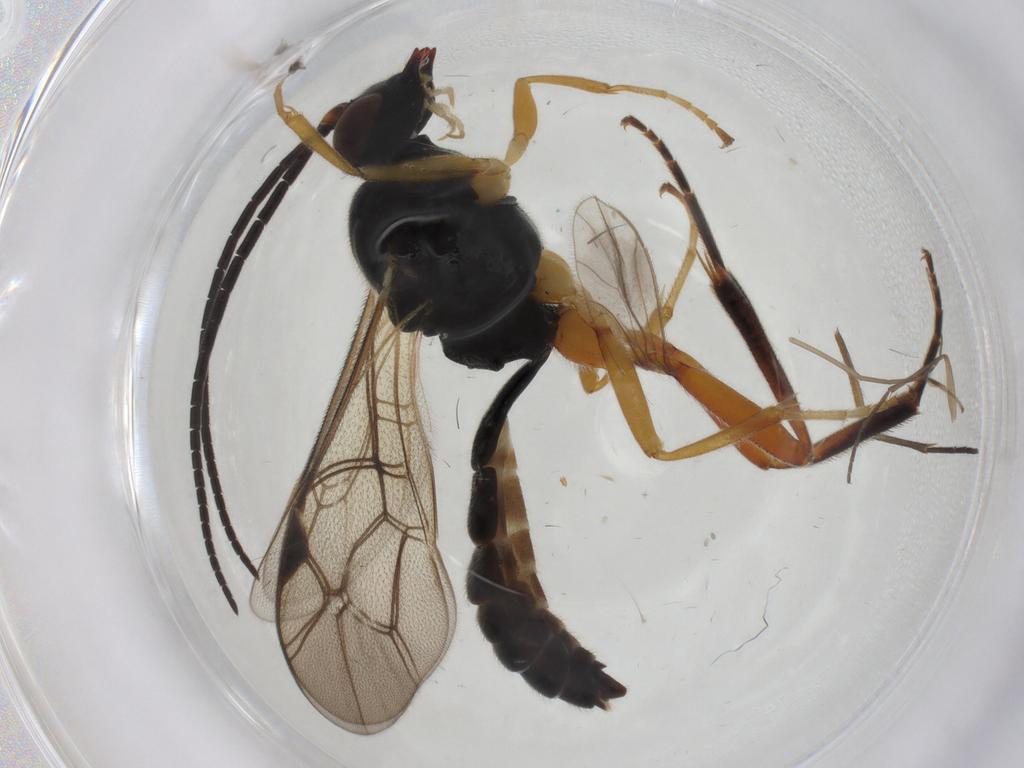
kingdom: Animalia
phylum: Arthropoda
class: Insecta
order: Hymenoptera
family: Ichneumonidae
